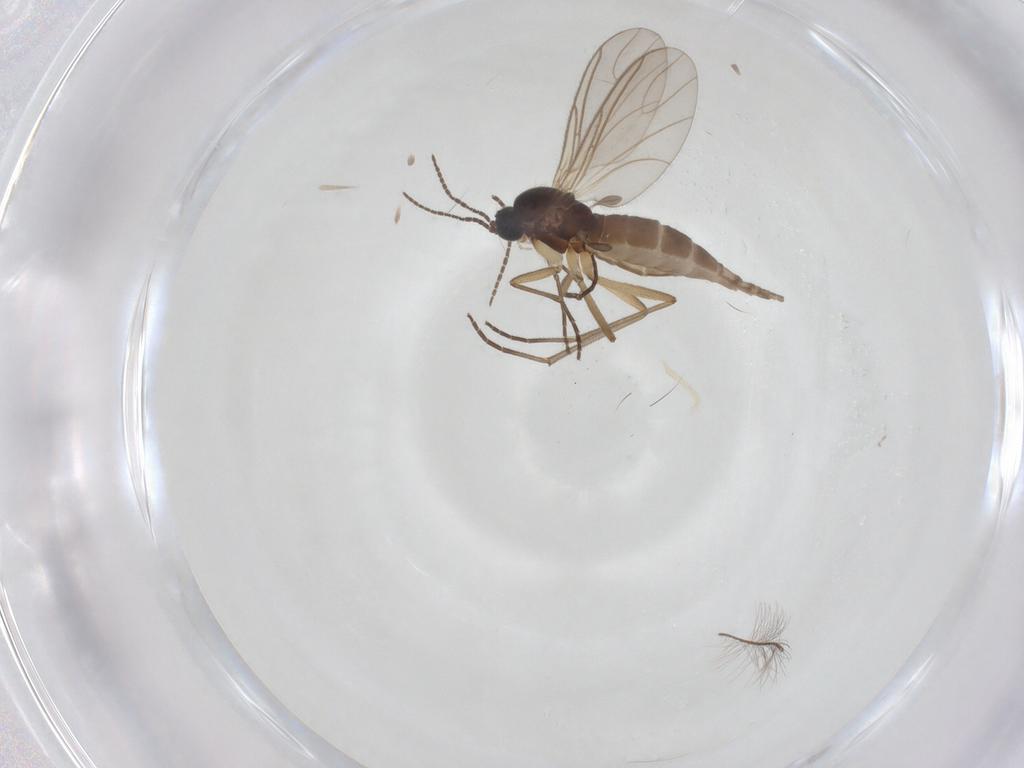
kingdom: Animalia
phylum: Arthropoda
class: Insecta
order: Diptera
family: Sciaridae
